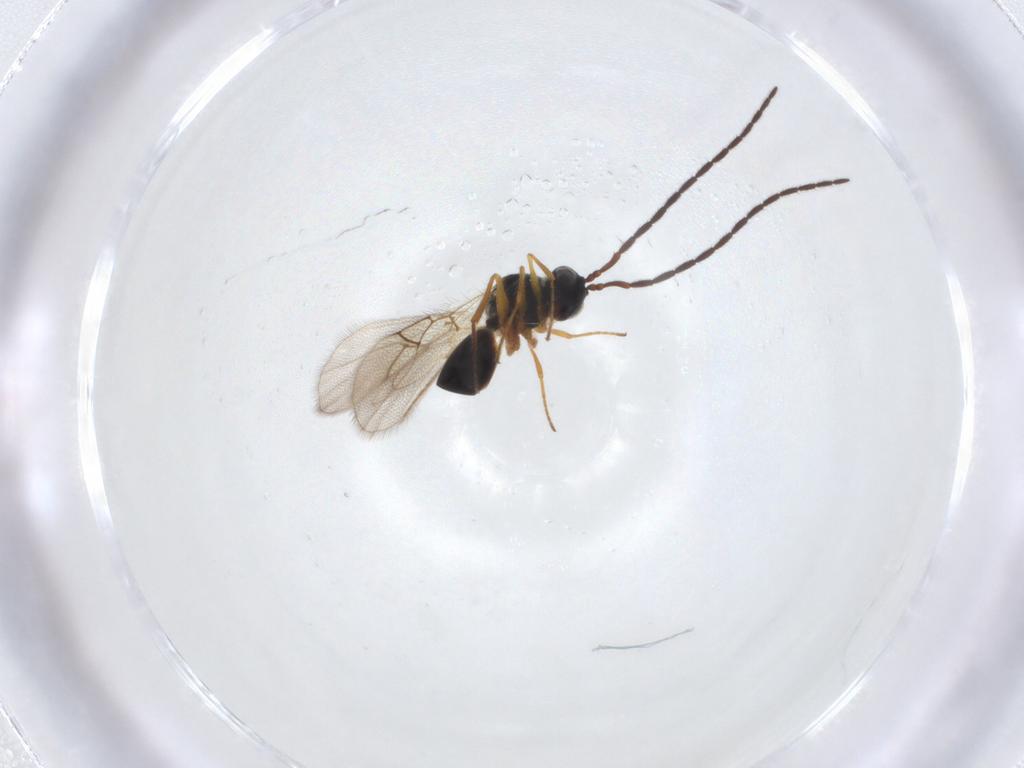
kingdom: Animalia
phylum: Arthropoda
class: Insecta
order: Hymenoptera
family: Figitidae
